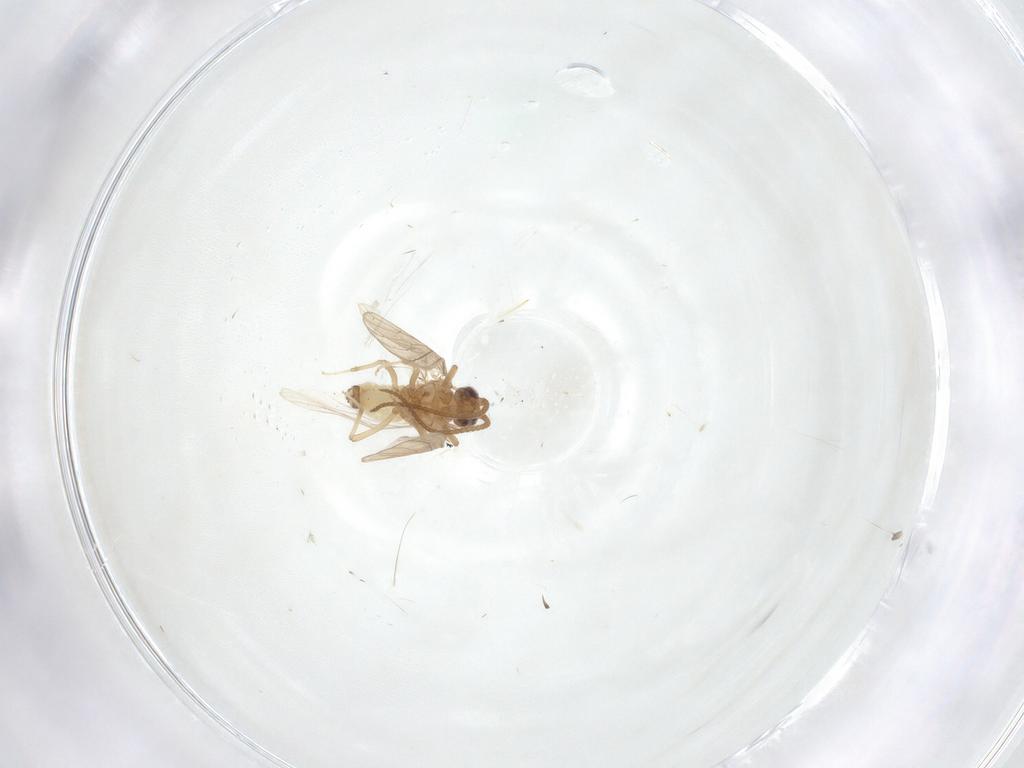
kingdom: Animalia
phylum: Arthropoda
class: Insecta
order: Neuroptera
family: Coniopterygidae
